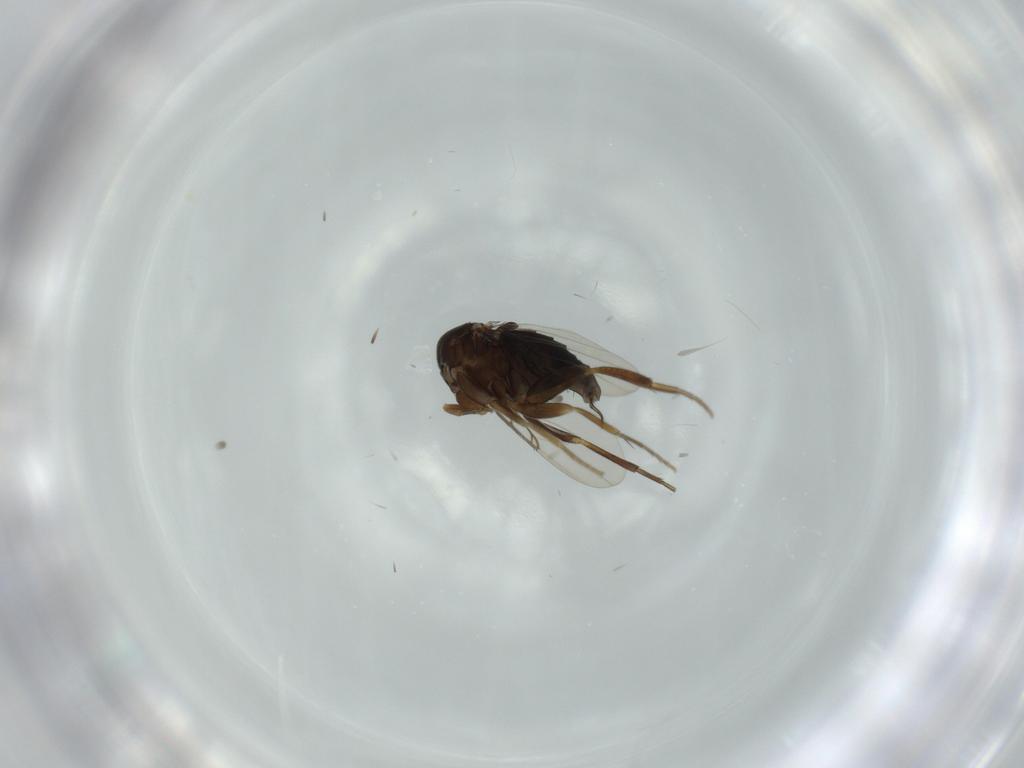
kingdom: Animalia
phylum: Arthropoda
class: Insecta
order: Diptera
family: Phoridae
